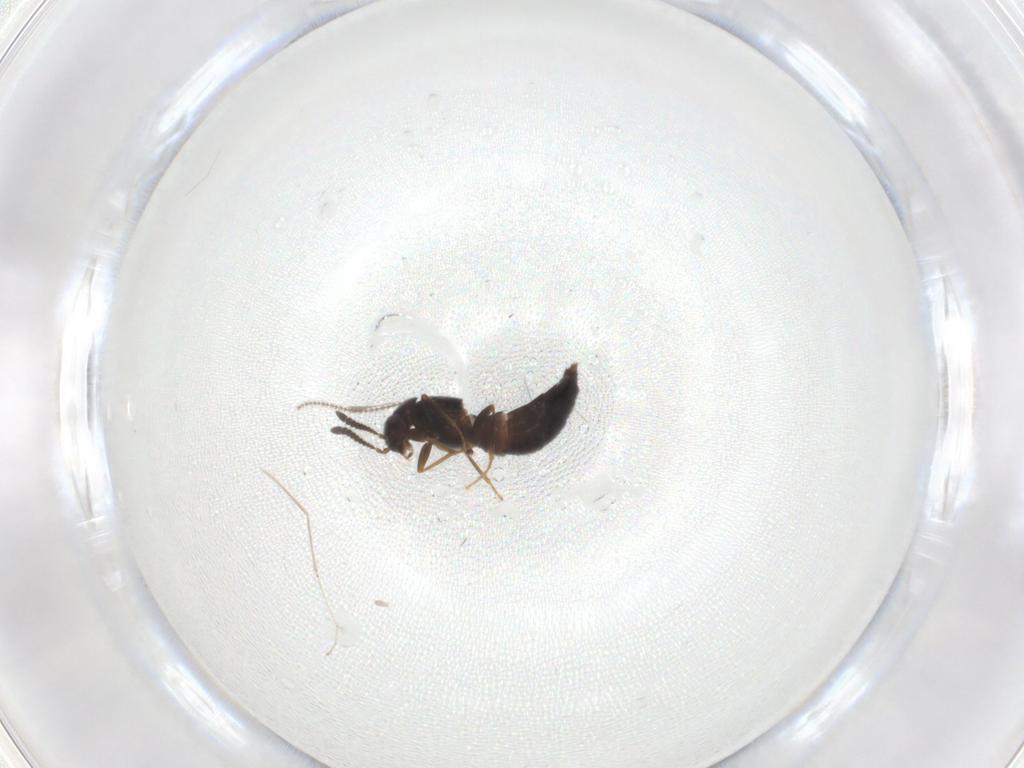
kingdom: Animalia
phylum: Arthropoda
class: Insecta
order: Coleoptera
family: Staphylinidae
